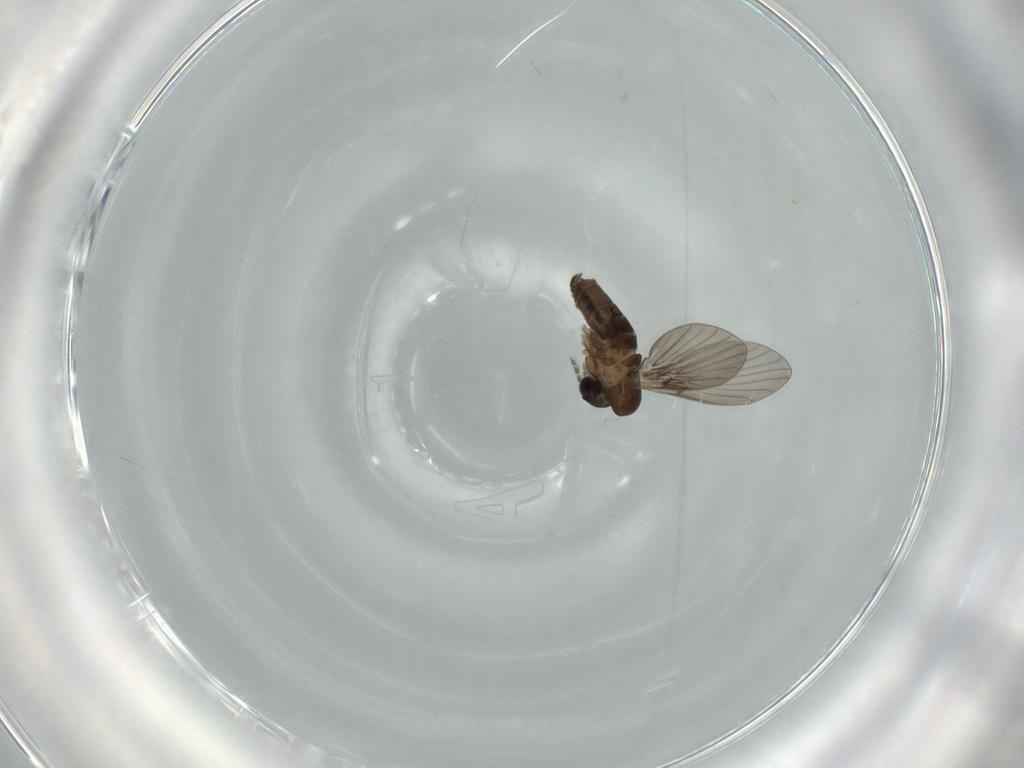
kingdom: Animalia
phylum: Arthropoda
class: Insecta
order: Diptera
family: Psychodidae
